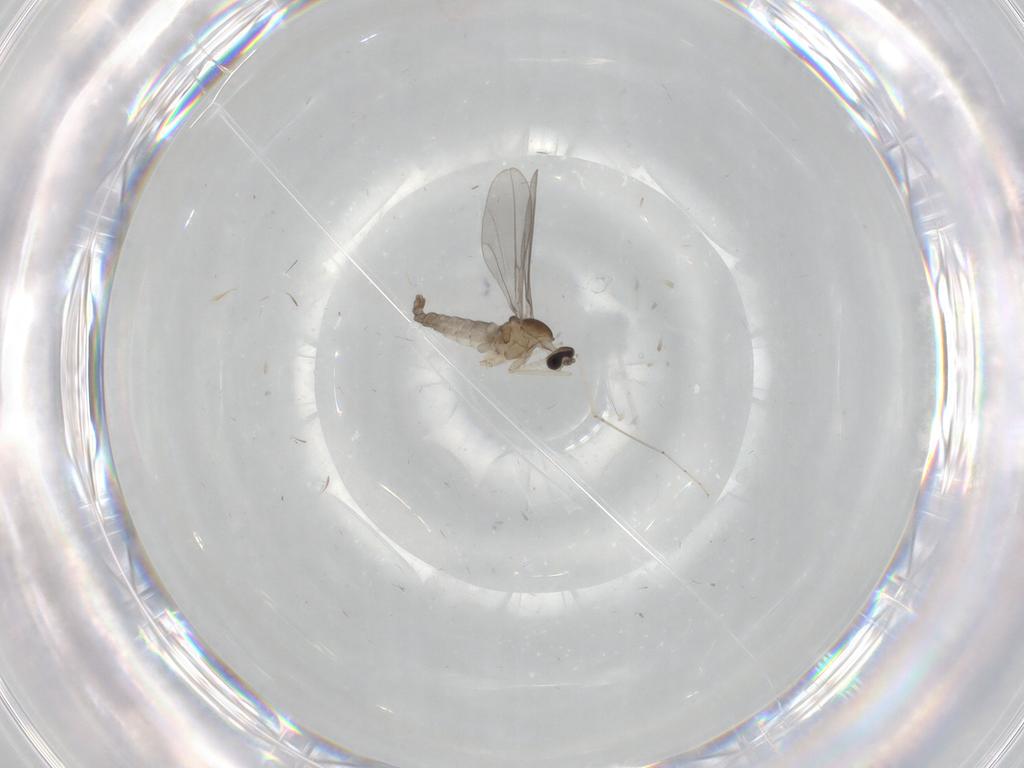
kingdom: Animalia
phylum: Arthropoda
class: Insecta
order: Diptera
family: Cecidomyiidae
